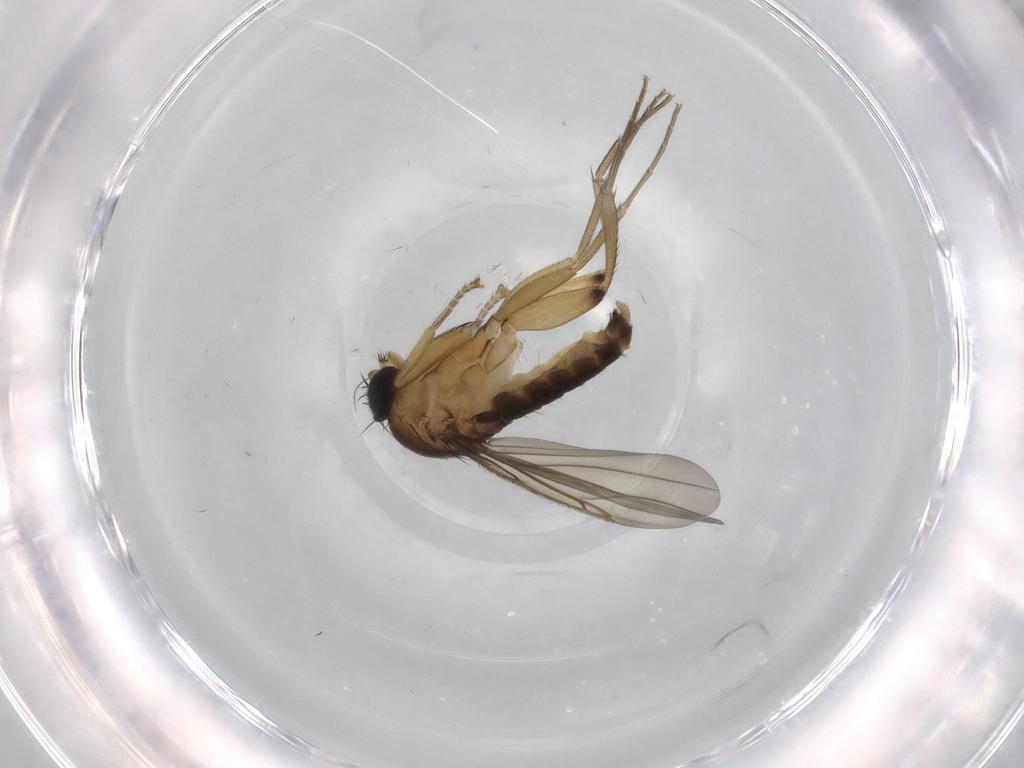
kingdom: Animalia
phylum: Arthropoda
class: Insecta
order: Diptera
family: Phoridae
